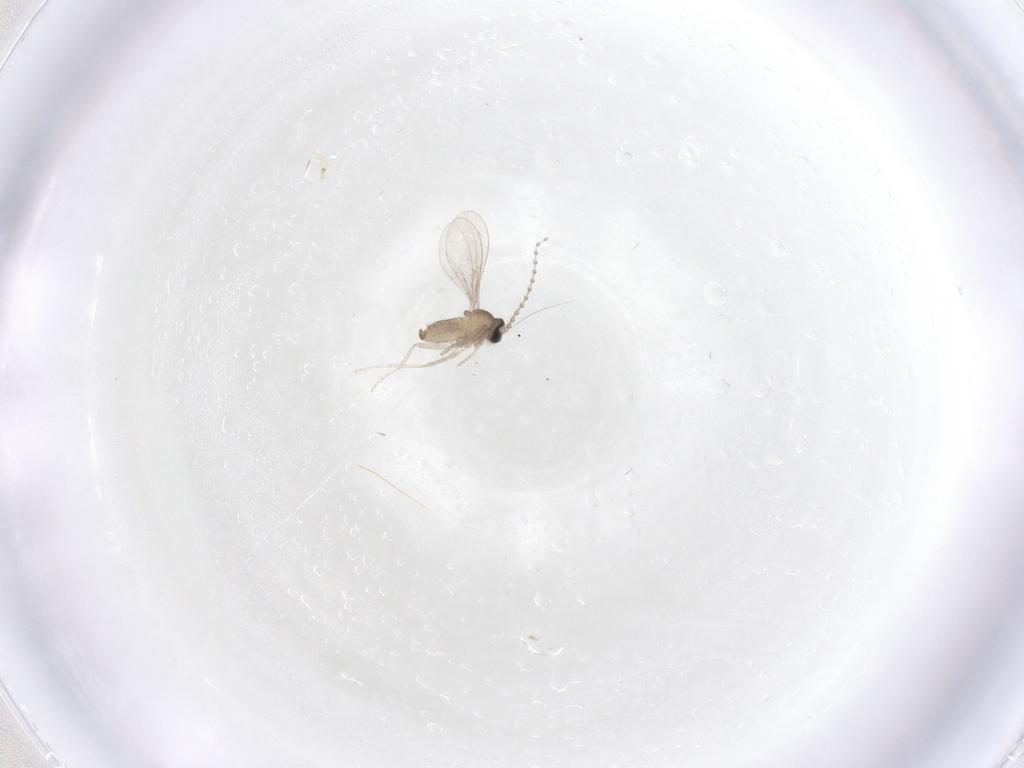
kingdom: Animalia
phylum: Arthropoda
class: Insecta
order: Diptera
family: Cecidomyiidae
